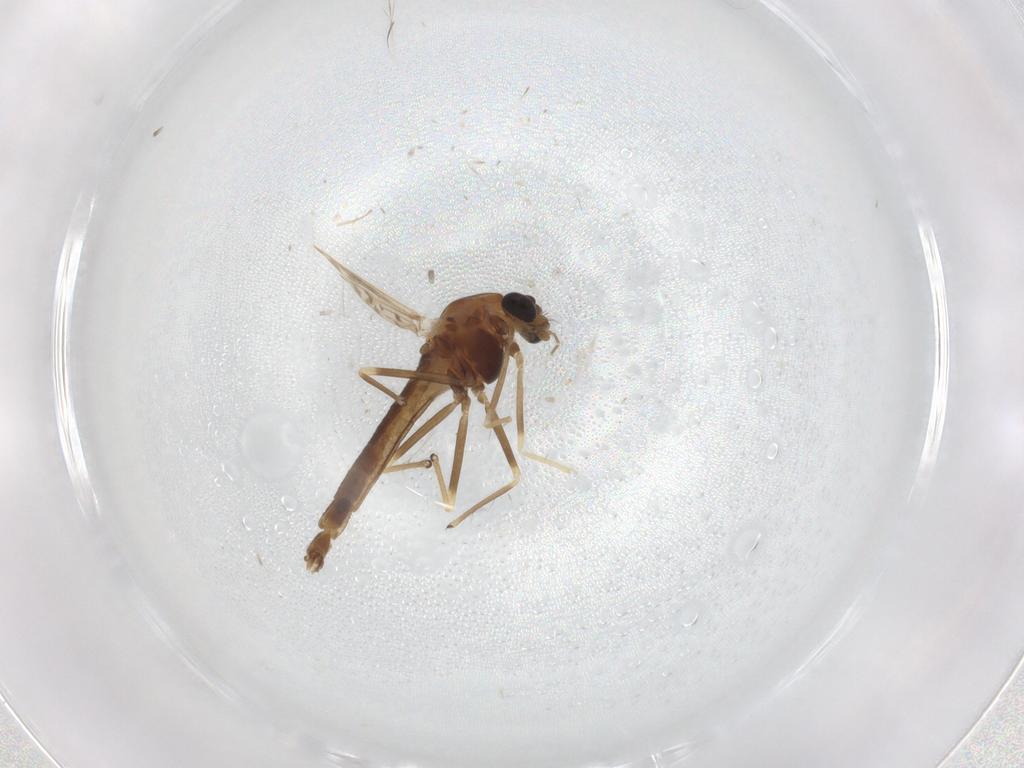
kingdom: Animalia
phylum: Arthropoda
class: Insecta
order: Diptera
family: Chironomidae
